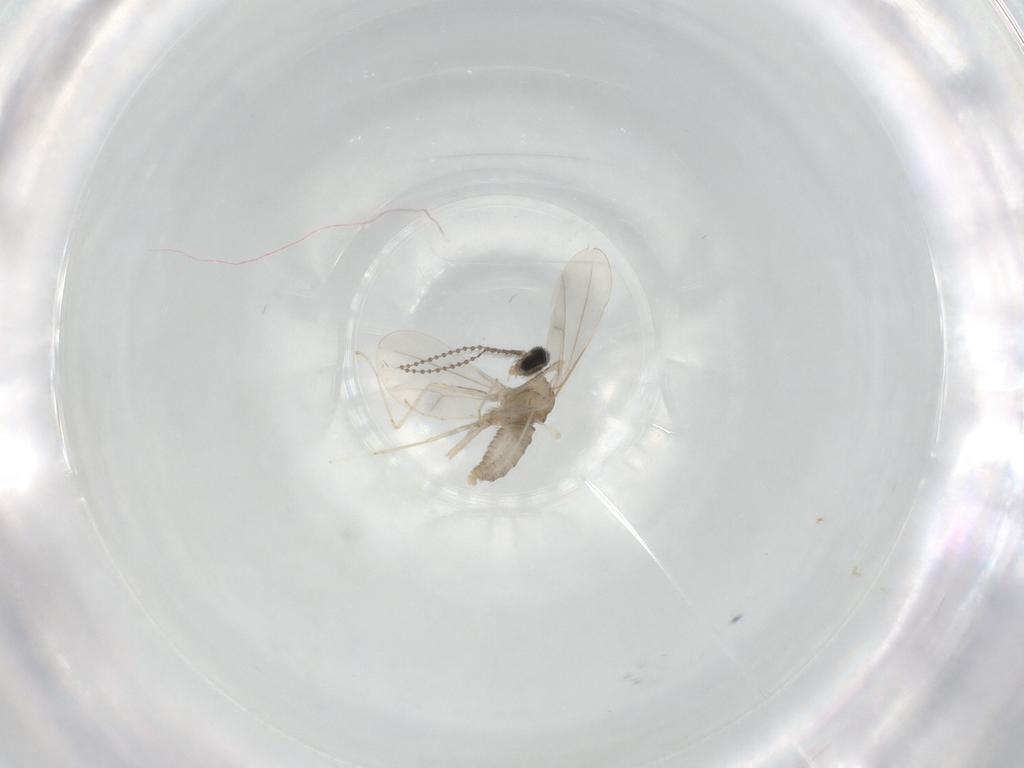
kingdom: Animalia
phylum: Arthropoda
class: Insecta
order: Diptera
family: Cecidomyiidae
